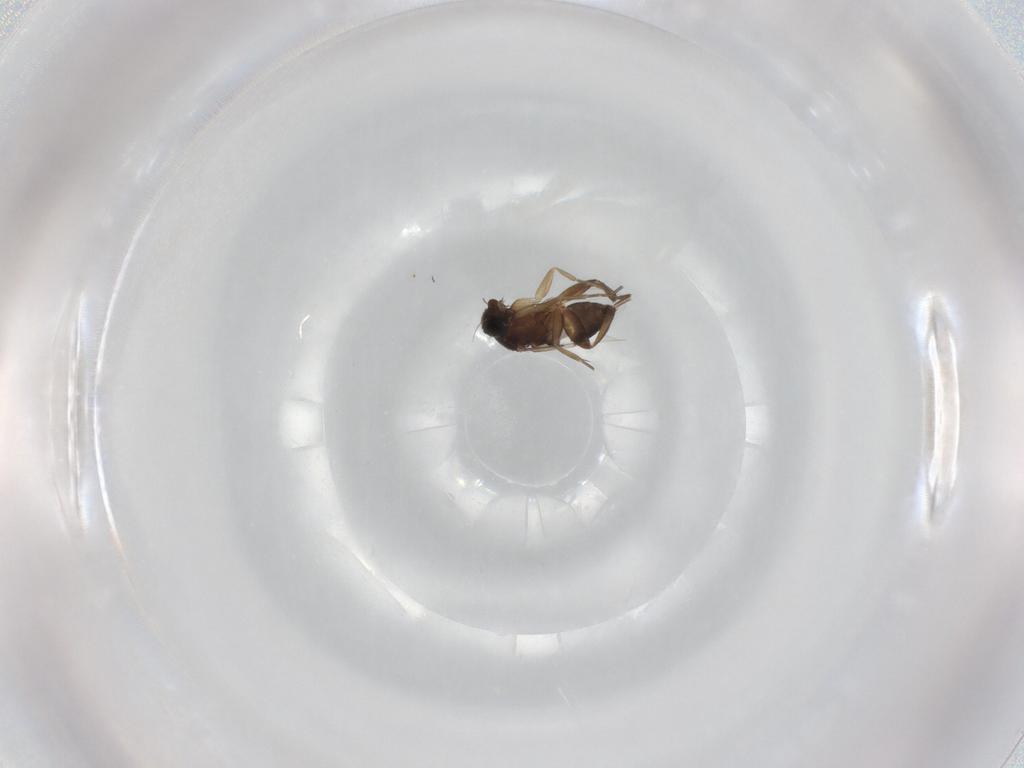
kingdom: Animalia
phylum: Arthropoda
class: Insecta
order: Diptera
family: Phoridae
